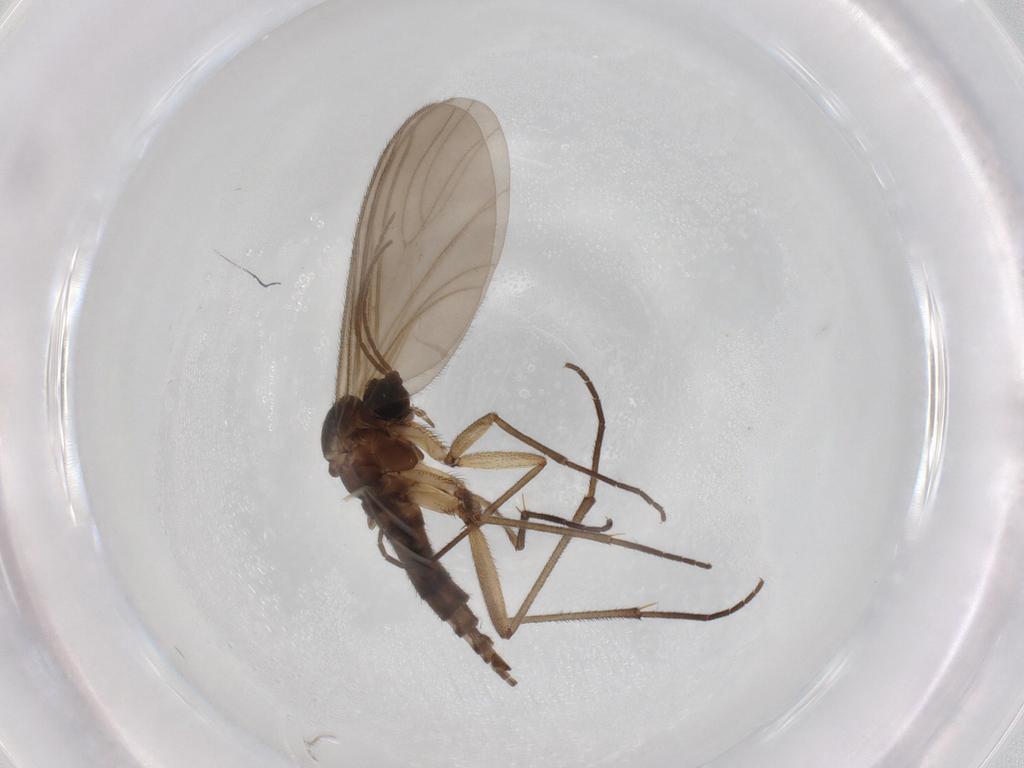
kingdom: Animalia
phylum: Arthropoda
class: Insecta
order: Diptera
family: Sciaridae
